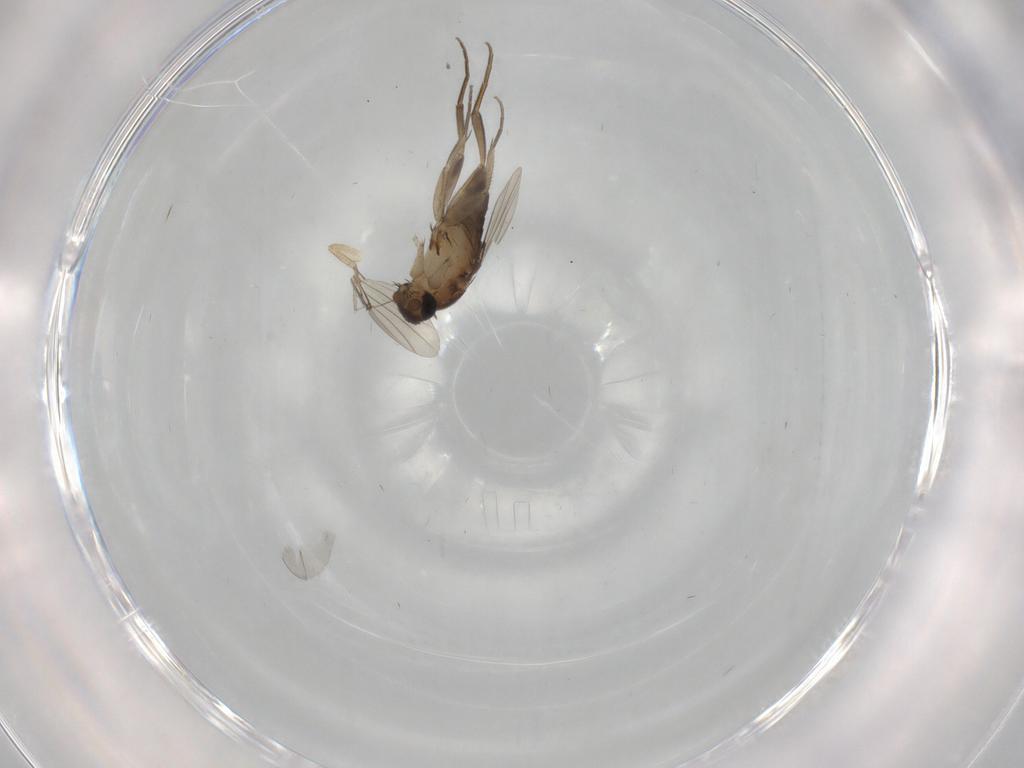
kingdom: Animalia
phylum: Arthropoda
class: Insecta
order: Diptera
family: Phoridae
